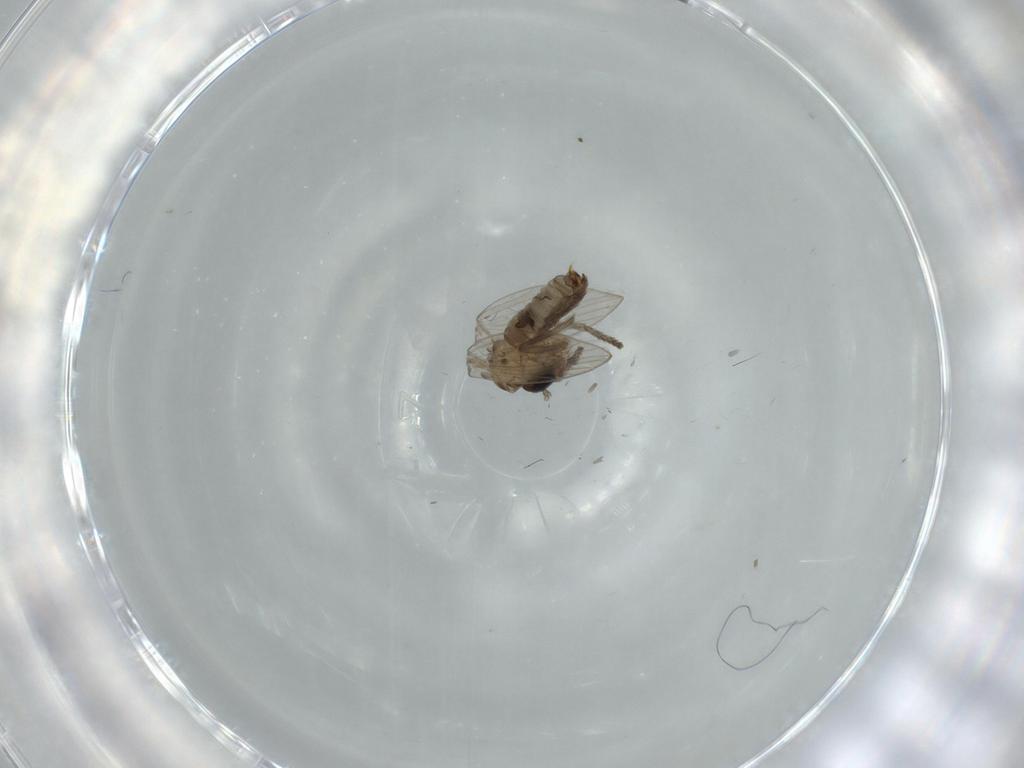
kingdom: Animalia
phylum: Arthropoda
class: Insecta
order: Diptera
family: Psychodidae
